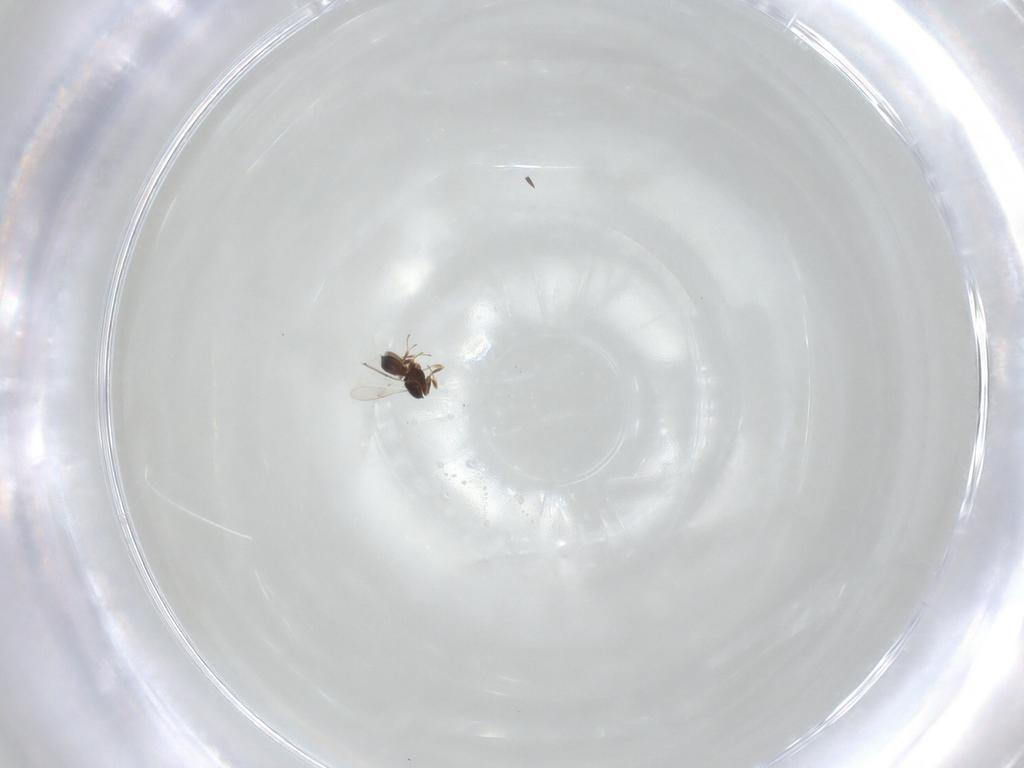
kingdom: Animalia
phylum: Arthropoda
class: Insecta
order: Hymenoptera
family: Scelionidae
